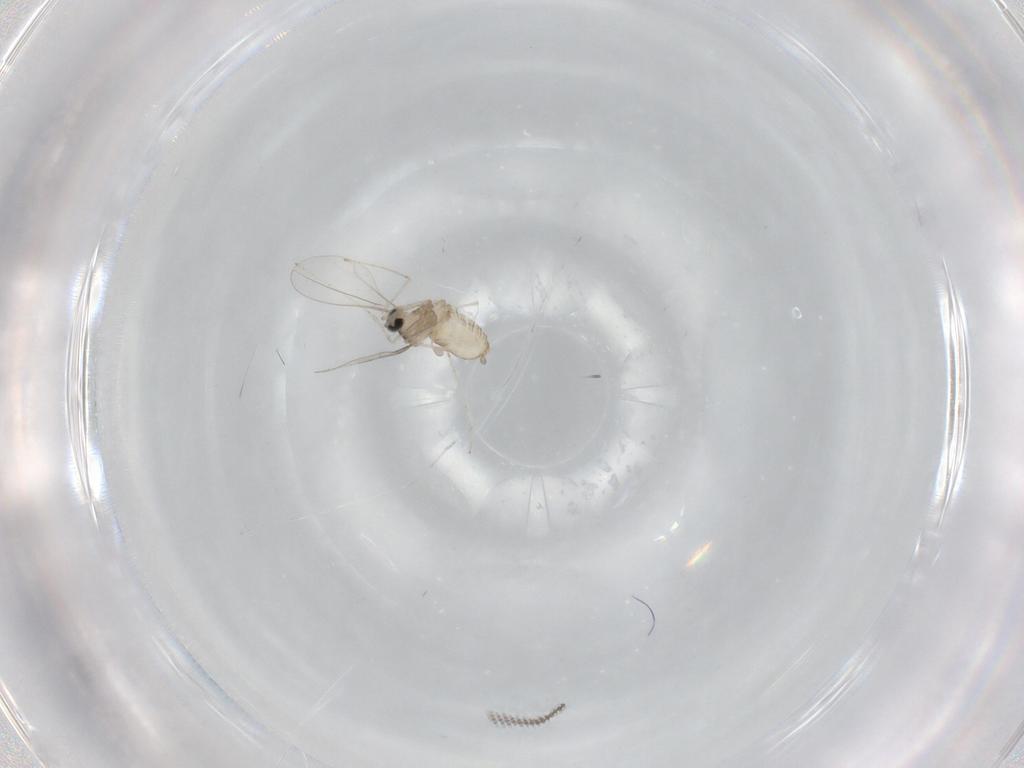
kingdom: Animalia
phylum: Arthropoda
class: Insecta
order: Diptera
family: Cecidomyiidae
